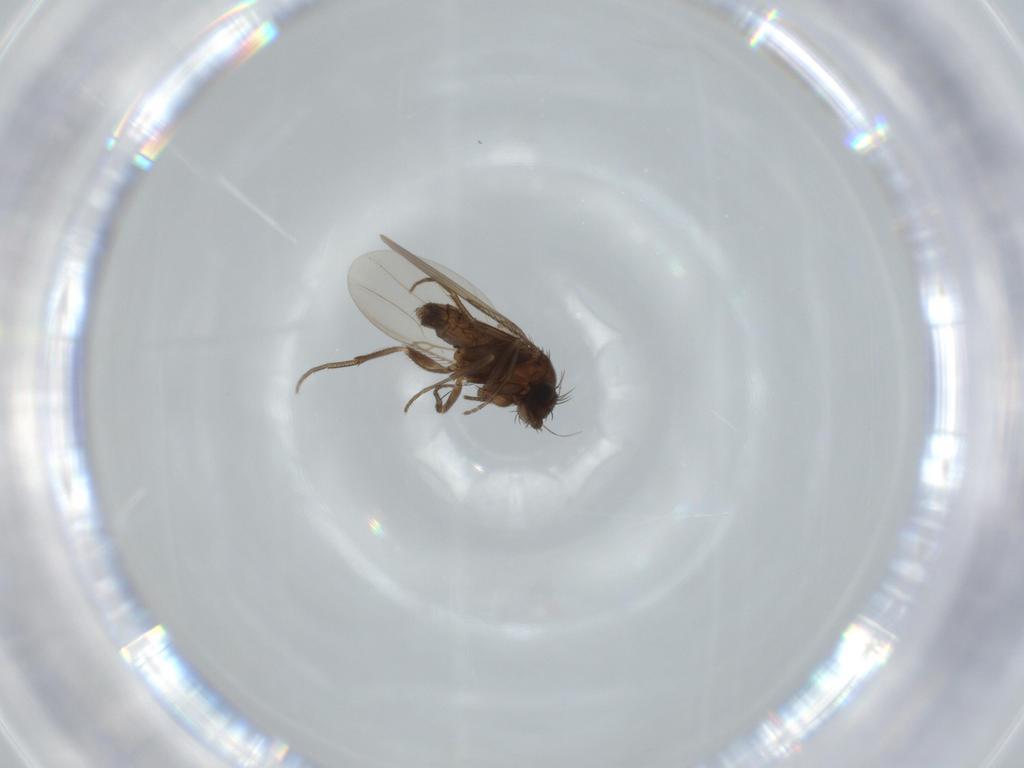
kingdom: Animalia
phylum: Arthropoda
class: Insecta
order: Diptera
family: Phoridae
